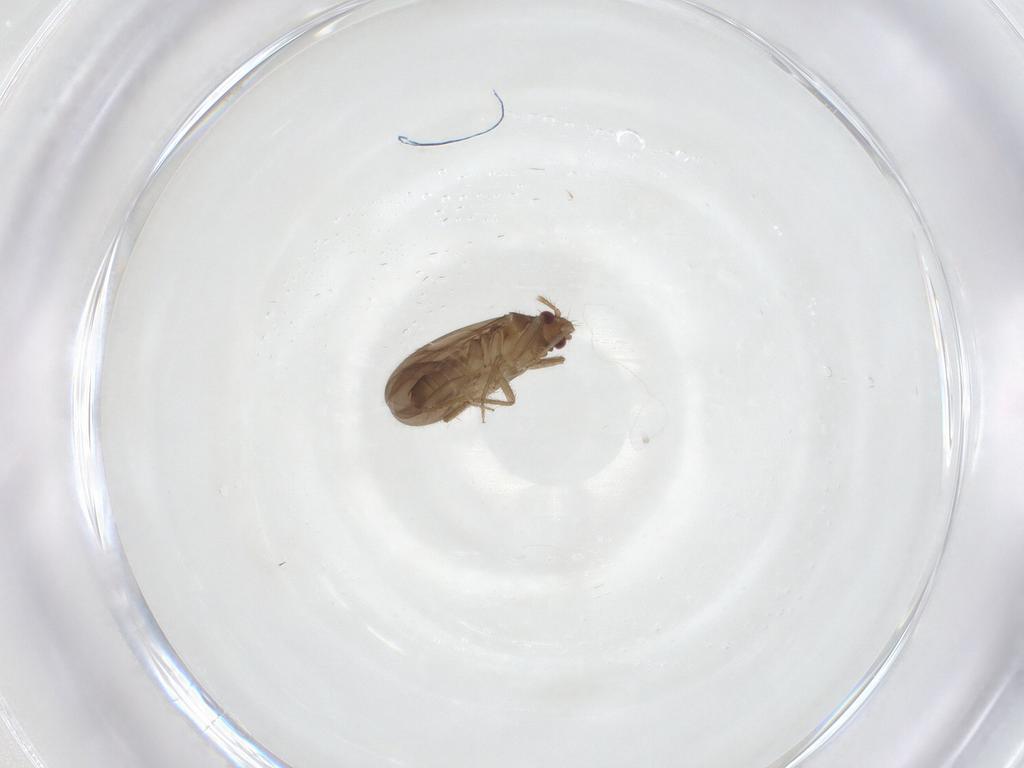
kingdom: Animalia
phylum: Arthropoda
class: Insecta
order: Hemiptera
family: Ceratocombidae
